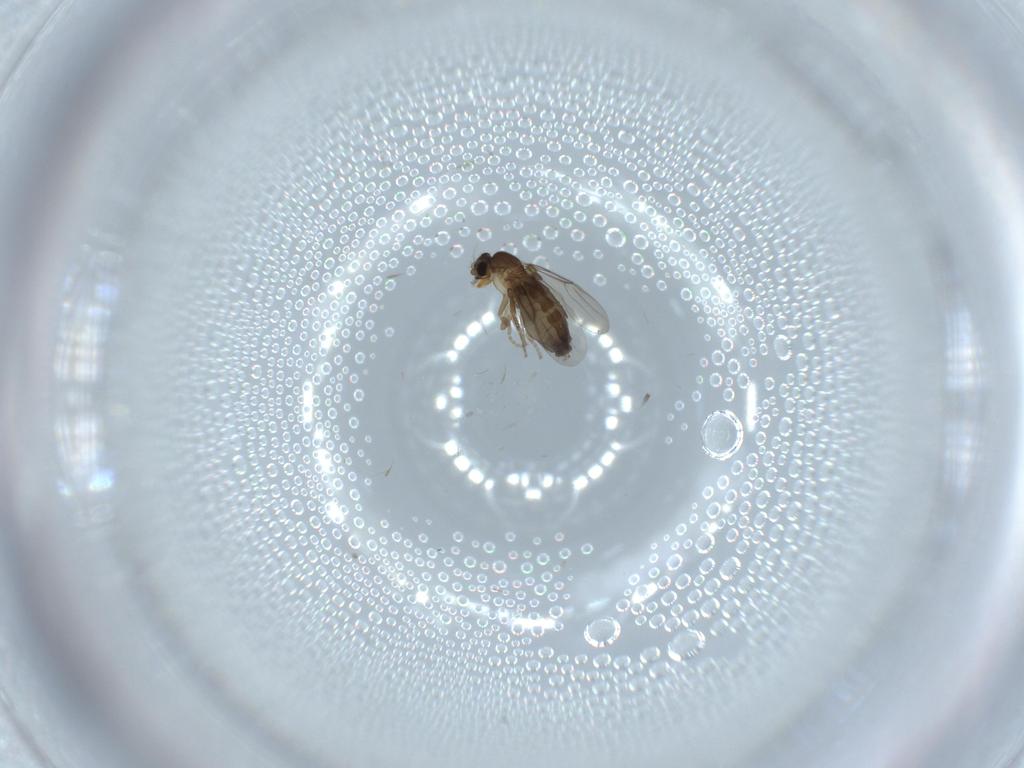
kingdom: Animalia
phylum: Arthropoda
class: Insecta
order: Diptera
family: Phoridae
